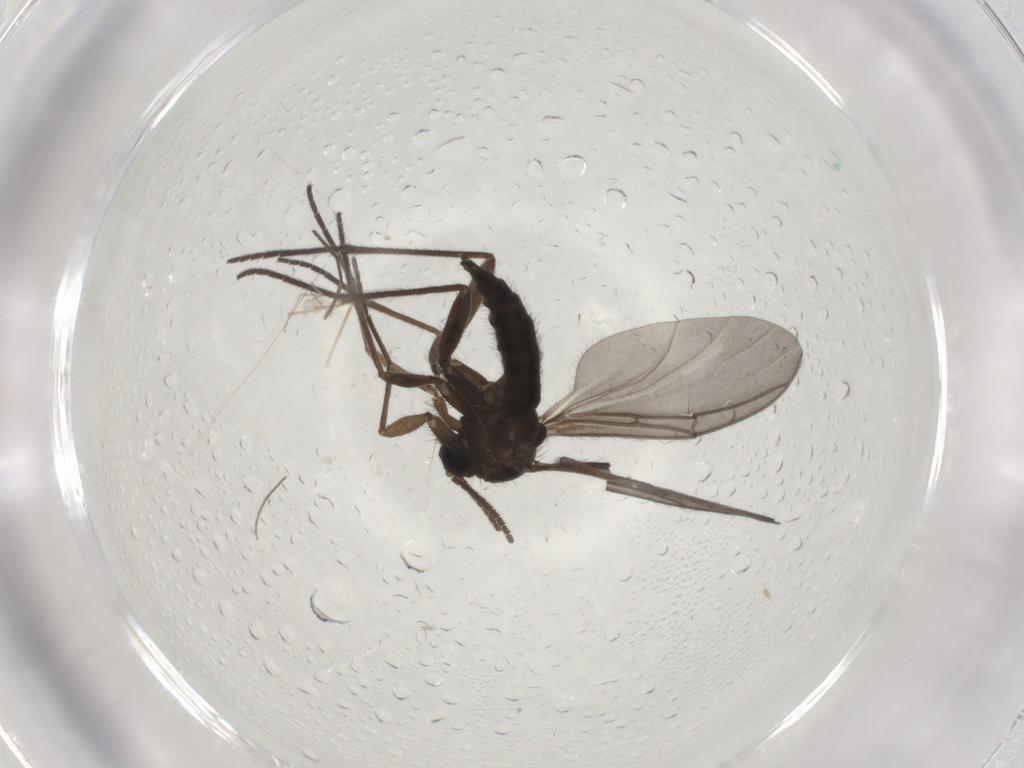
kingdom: Animalia
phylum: Arthropoda
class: Insecta
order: Diptera
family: Sciaridae
